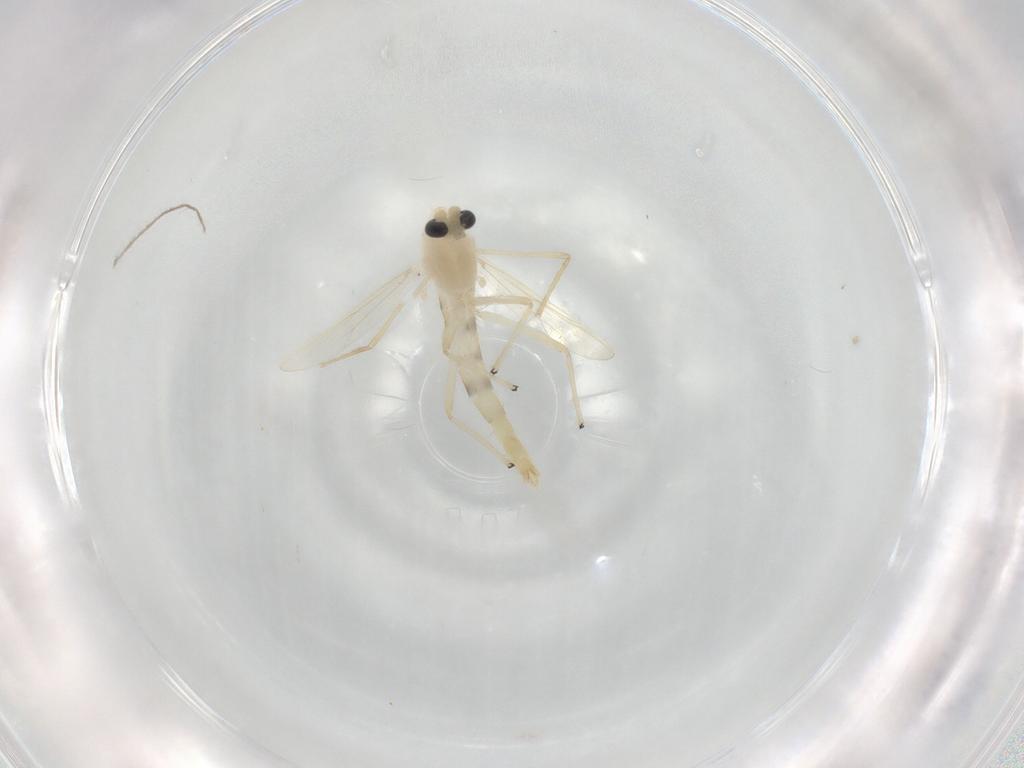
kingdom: Animalia
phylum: Arthropoda
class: Insecta
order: Diptera
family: Chironomidae
